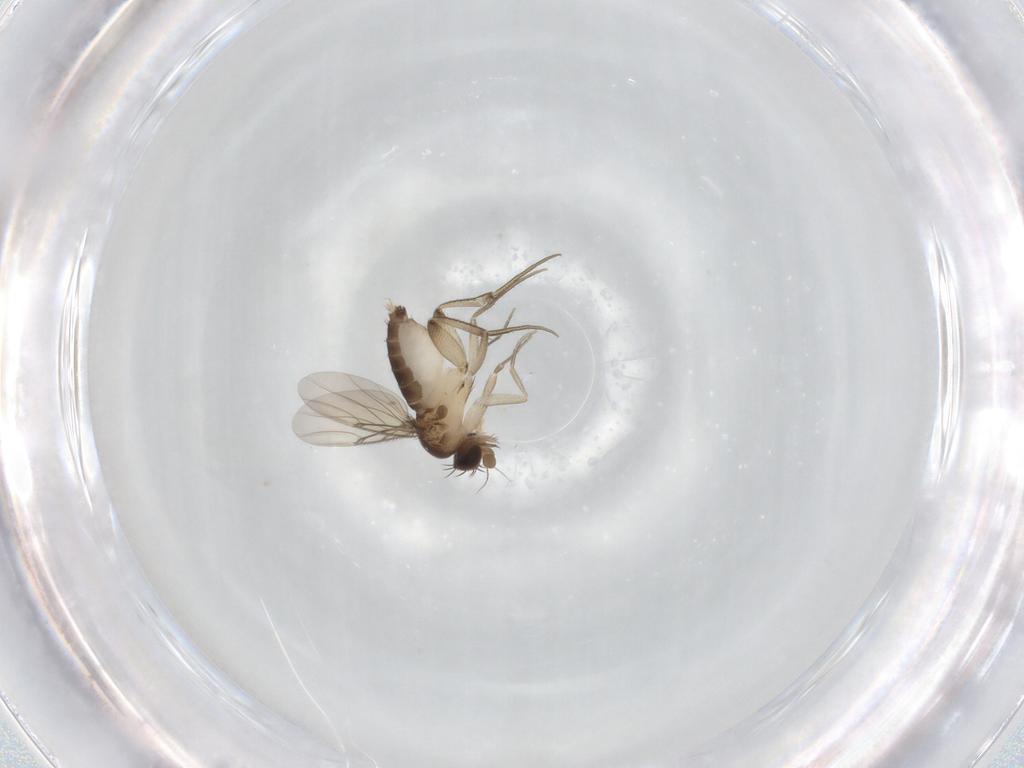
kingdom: Animalia
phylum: Arthropoda
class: Insecta
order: Diptera
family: Phoridae
